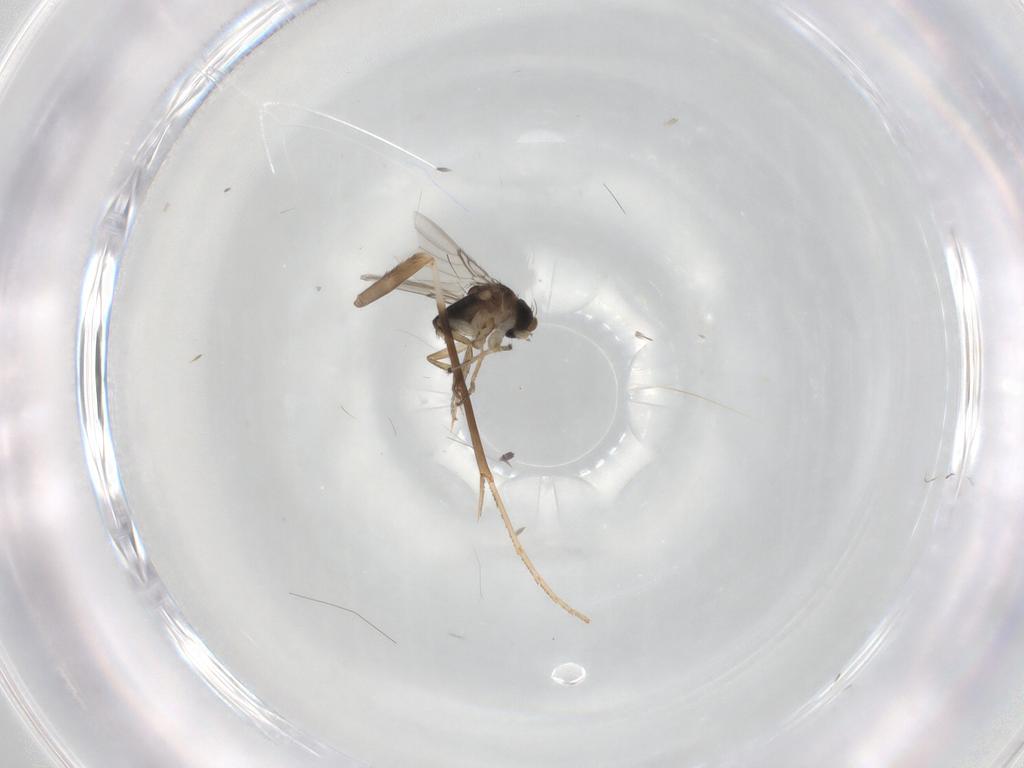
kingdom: Animalia
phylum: Arthropoda
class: Insecta
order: Diptera
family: Phoridae
